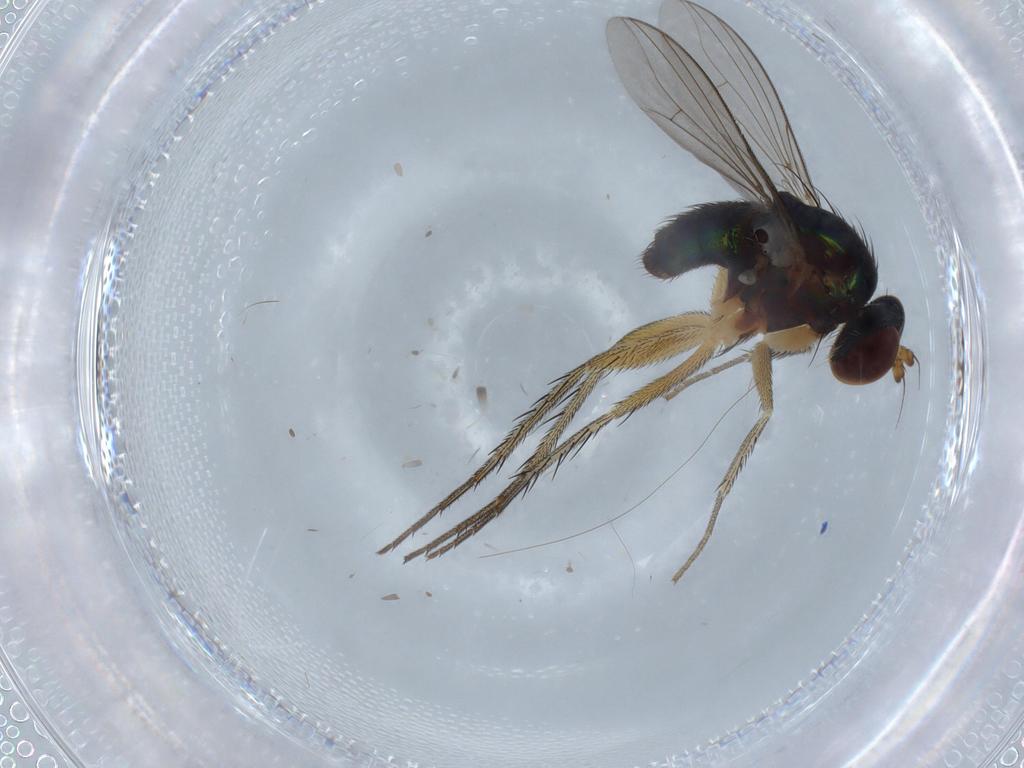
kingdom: Animalia
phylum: Arthropoda
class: Insecta
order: Diptera
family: Dolichopodidae
